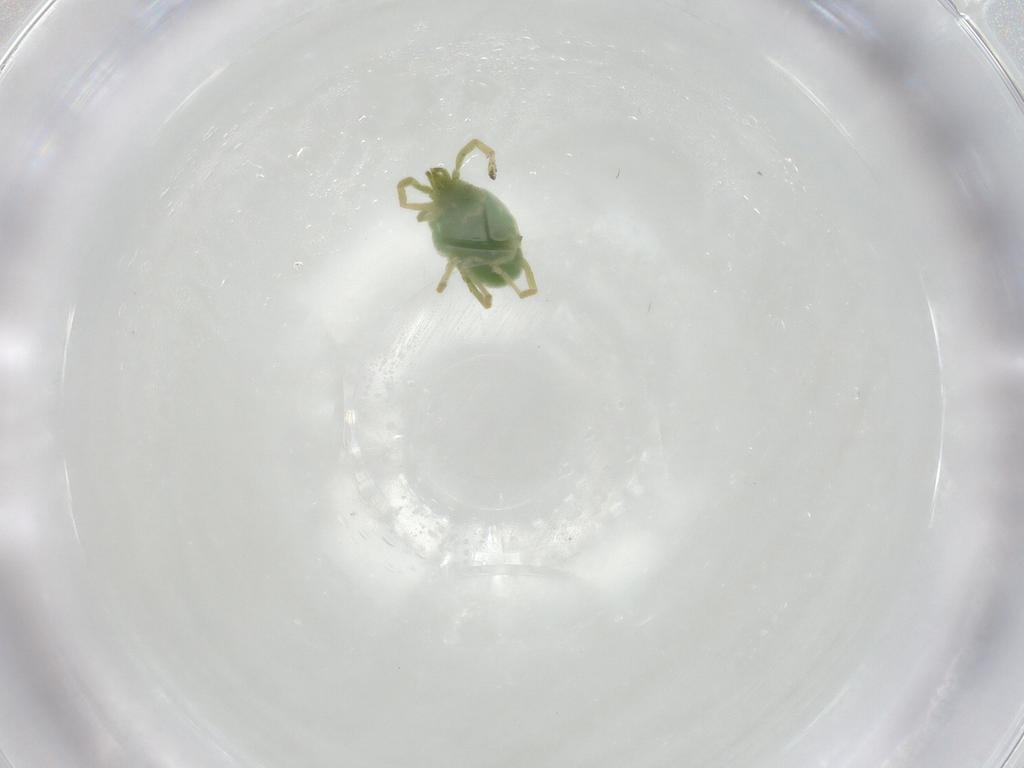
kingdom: Animalia
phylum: Arthropoda
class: Arachnida
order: Trombidiformes
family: Erythraeidae
